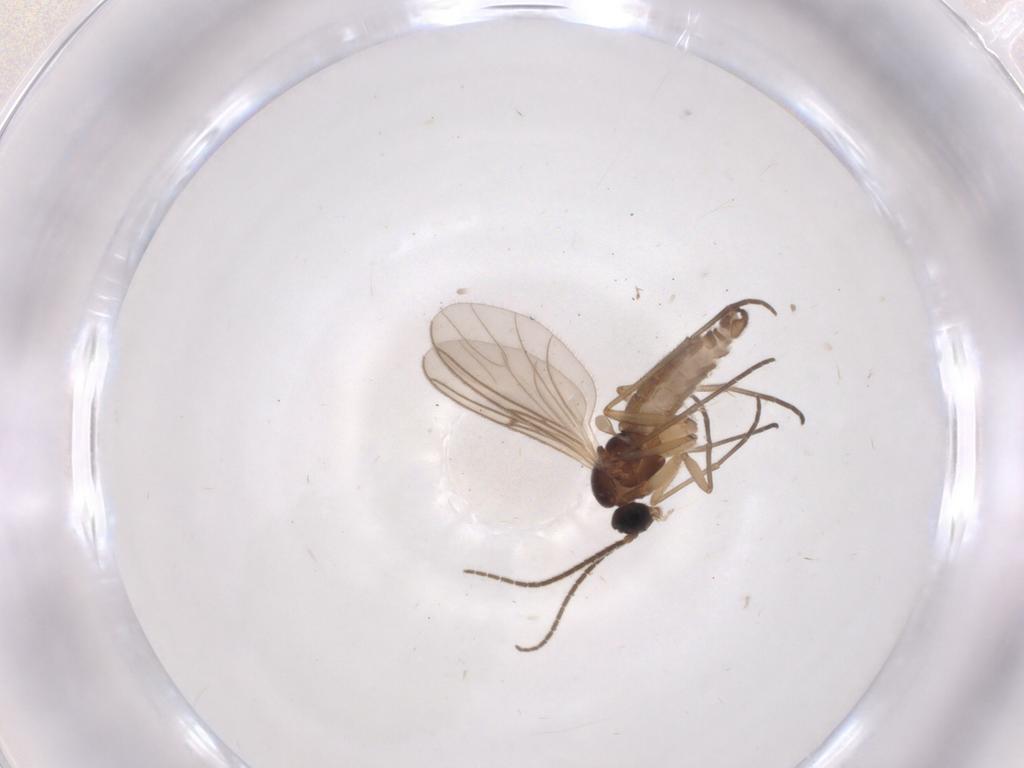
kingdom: Animalia
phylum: Arthropoda
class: Insecta
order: Diptera
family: Sciaridae
